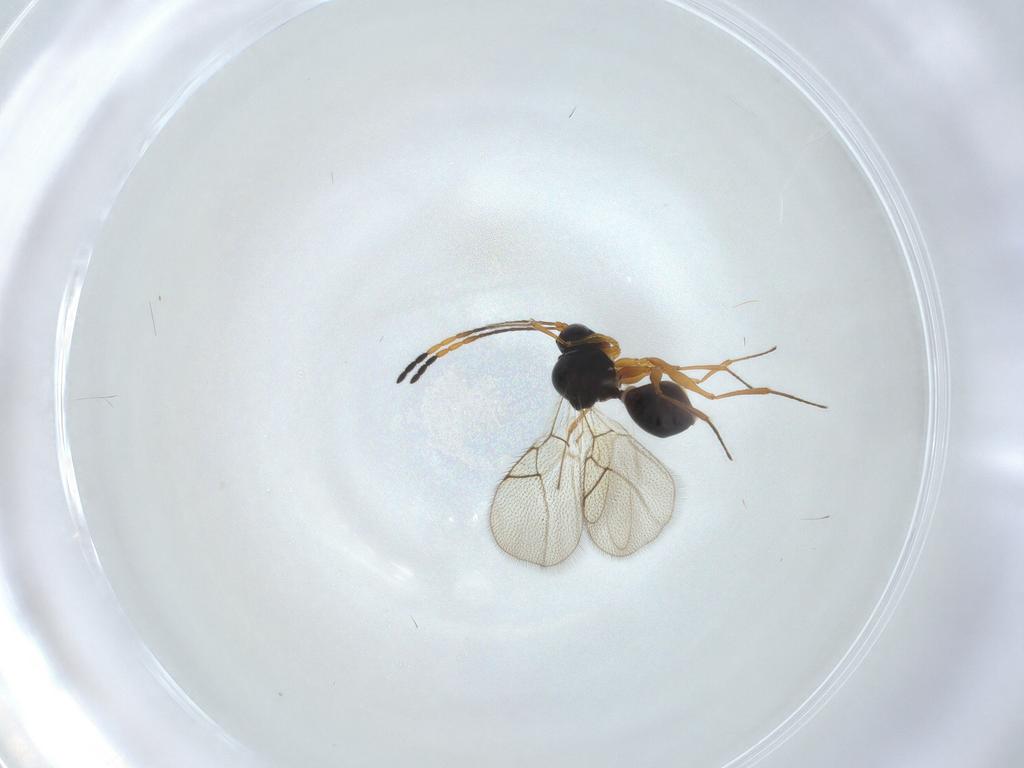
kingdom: Animalia
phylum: Arthropoda
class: Insecta
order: Hymenoptera
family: Figitidae
